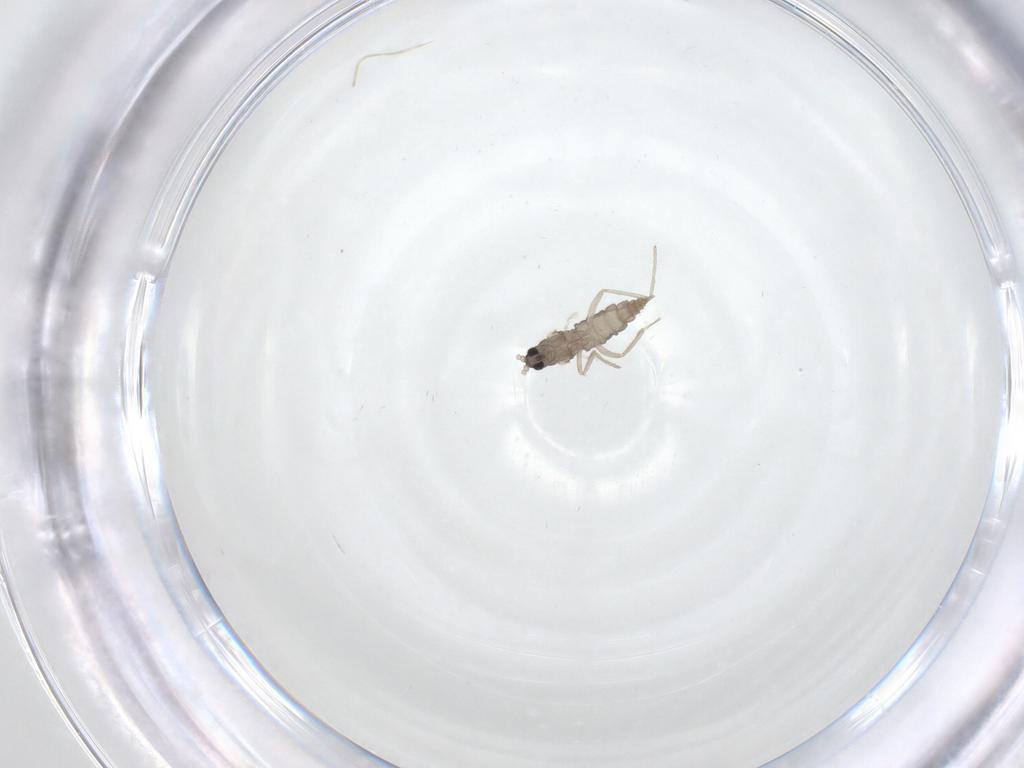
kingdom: Animalia
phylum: Arthropoda
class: Insecta
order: Diptera
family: Cecidomyiidae
